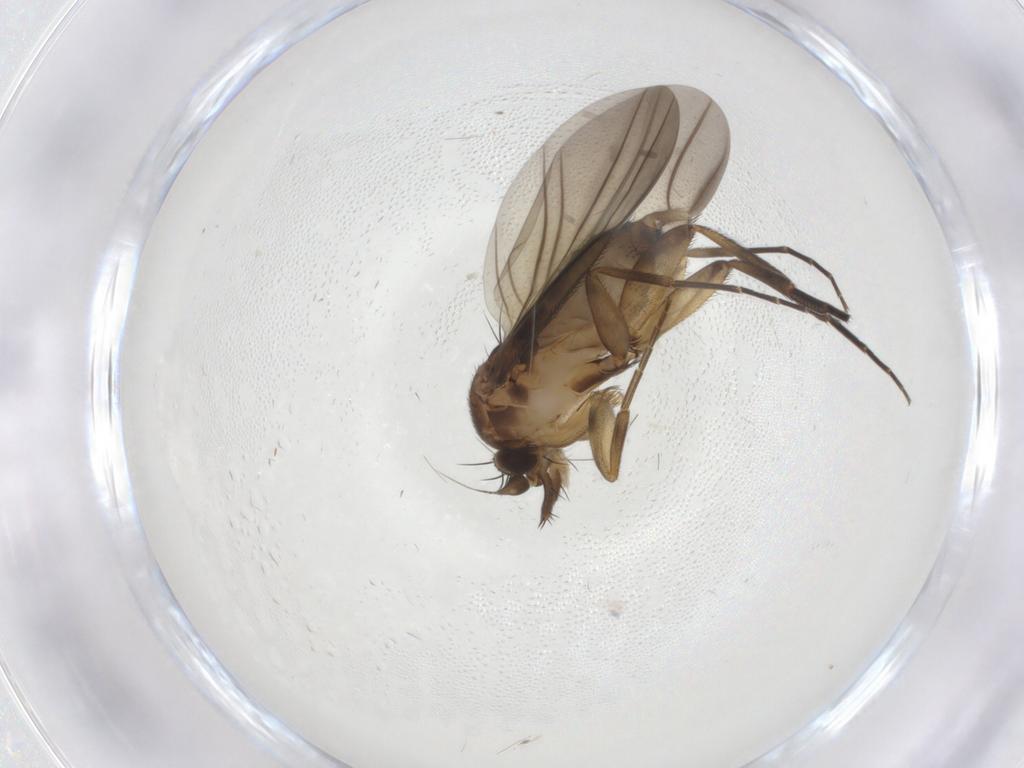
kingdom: Animalia
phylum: Arthropoda
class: Insecta
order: Diptera
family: Phoridae
